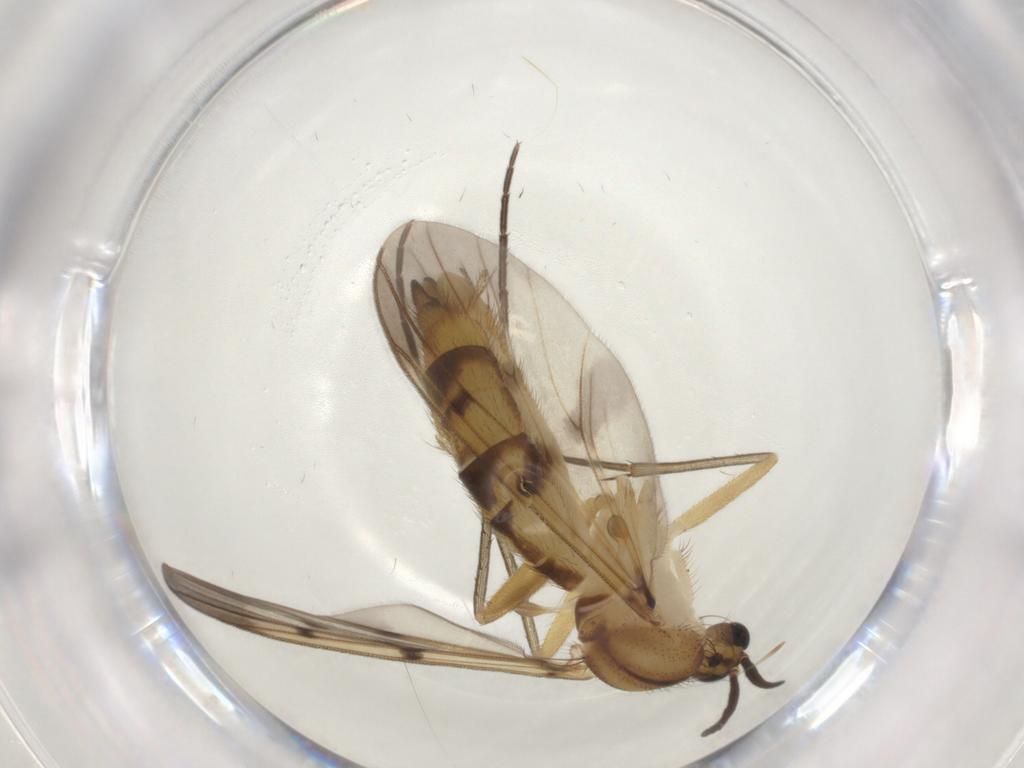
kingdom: Animalia
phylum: Arthropoda
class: Insecta
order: Diptera
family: Mycetophilidae
